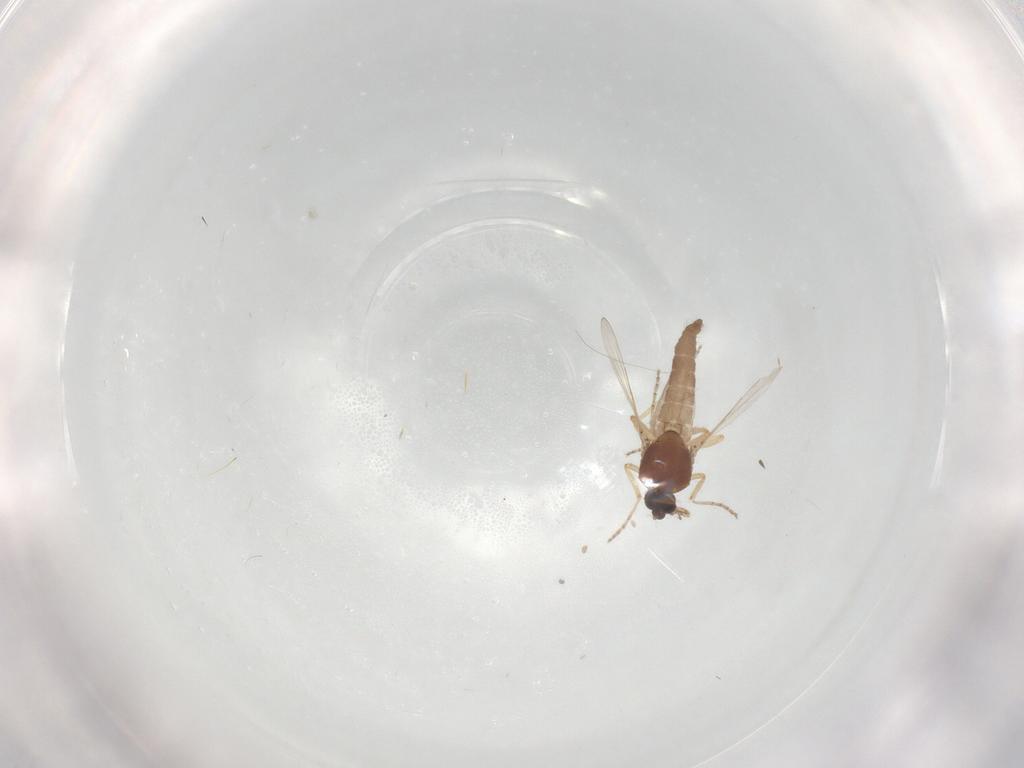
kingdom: Animalia
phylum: Arthropoda
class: Insecta
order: Diptera
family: Ceratopogonidae
